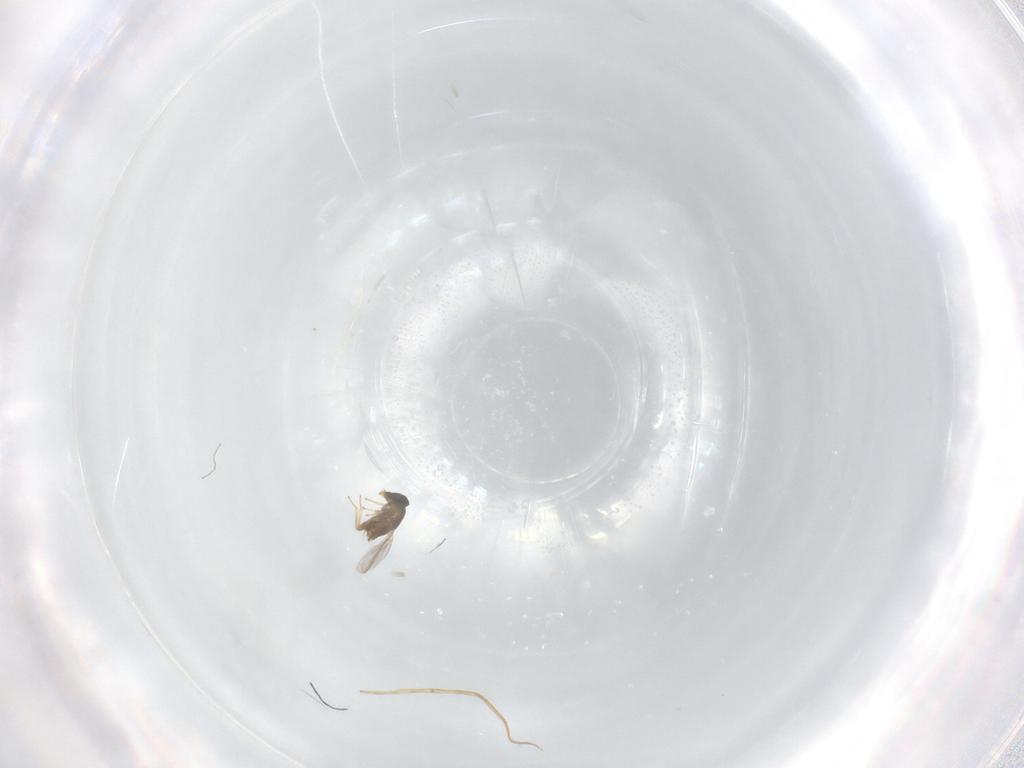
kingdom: Animalia
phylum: Arthropoda
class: Insecta
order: Hymenoptera
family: Encyrtidae
